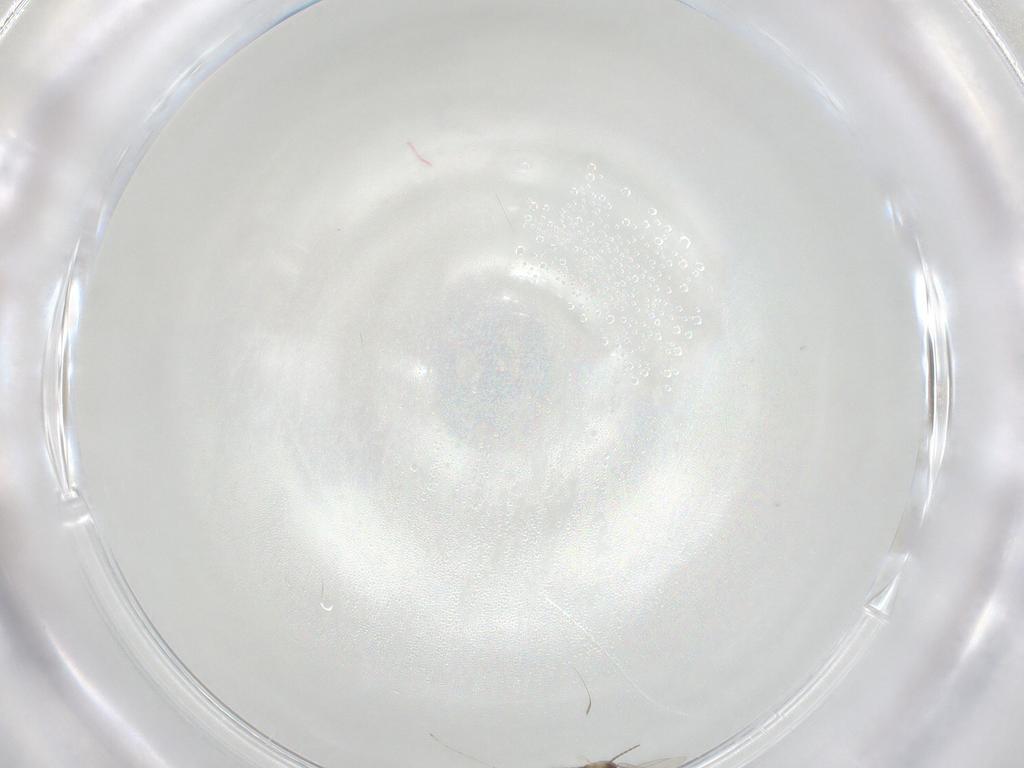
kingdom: Animalia
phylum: Arthropoda
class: Insecta
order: Diptera
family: Cecidomyiidae
